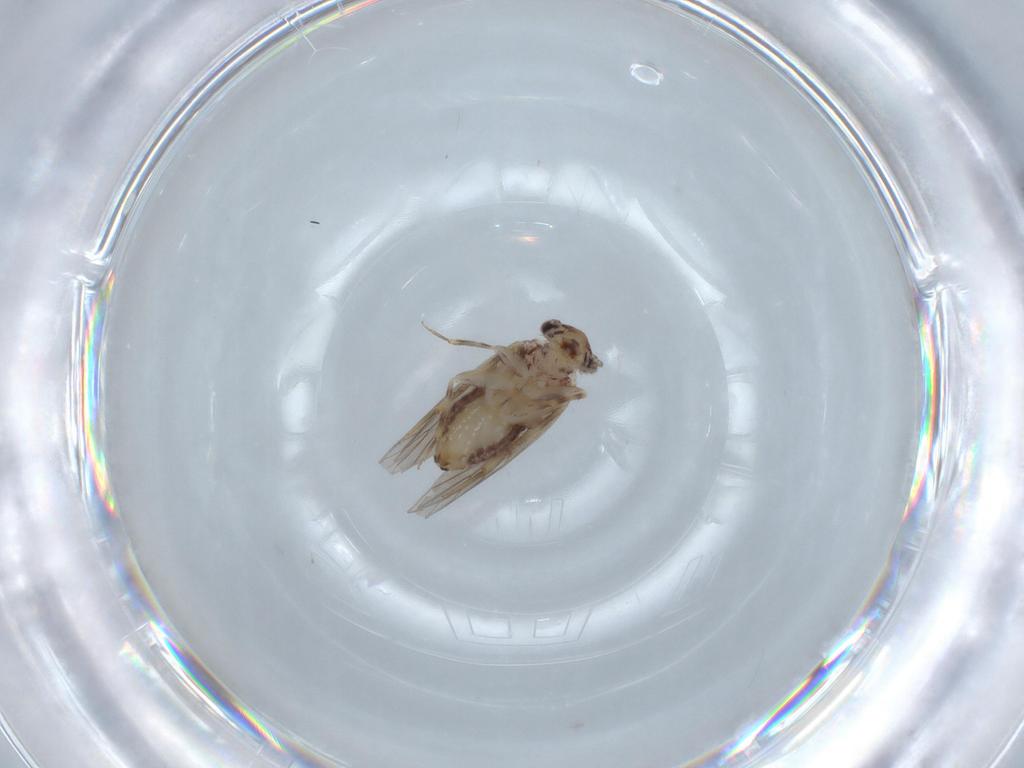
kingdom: Animalia
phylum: Arthropoda
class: Insecta
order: Psocodea
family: Lepidopsocidae
